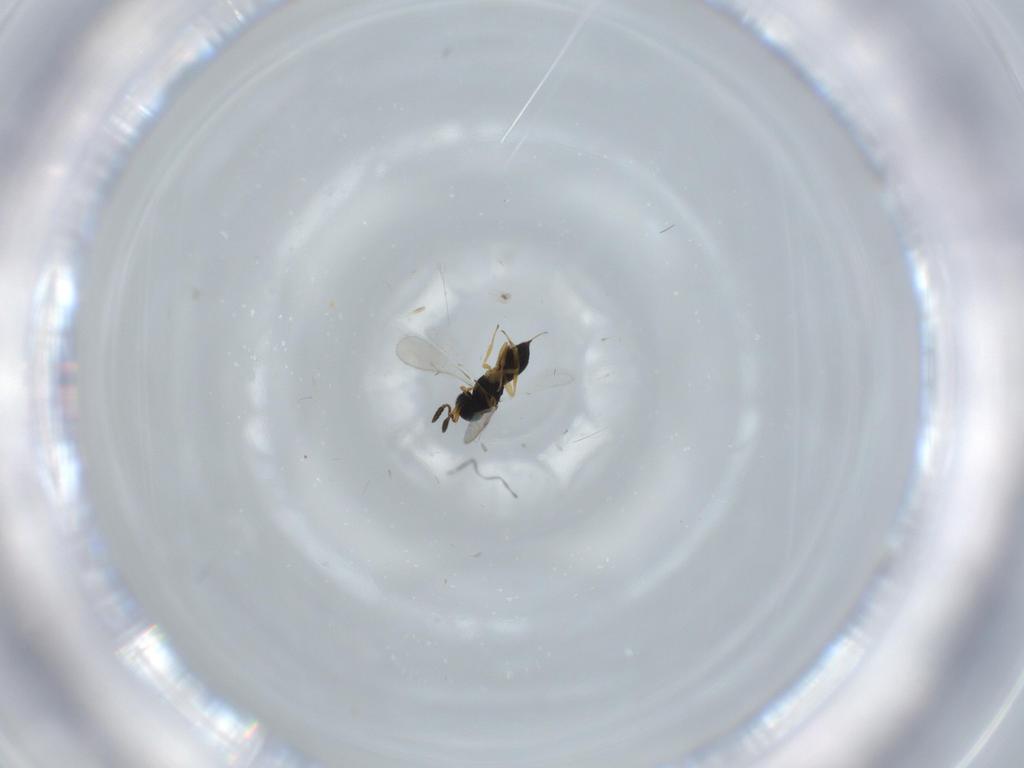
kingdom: Animalia
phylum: Arthropoda
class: Insecta
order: Hymenoptera
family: Scelionidae
